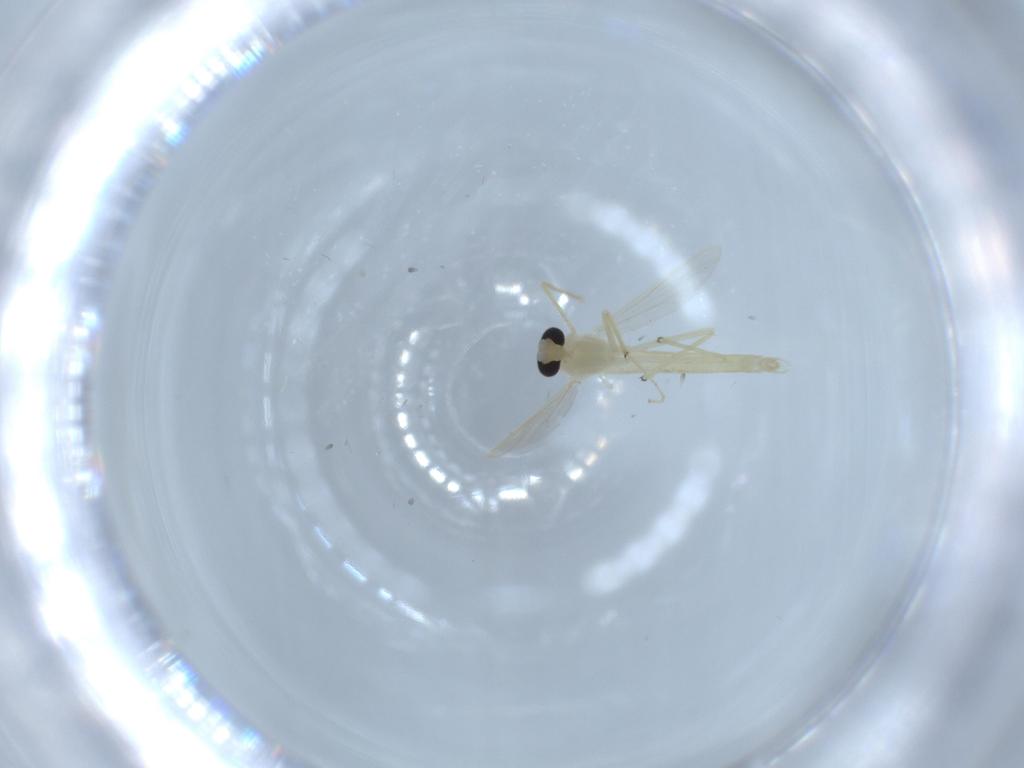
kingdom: Animalia
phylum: Arthropoda
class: Insecta
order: Diptera
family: Chironomidae
